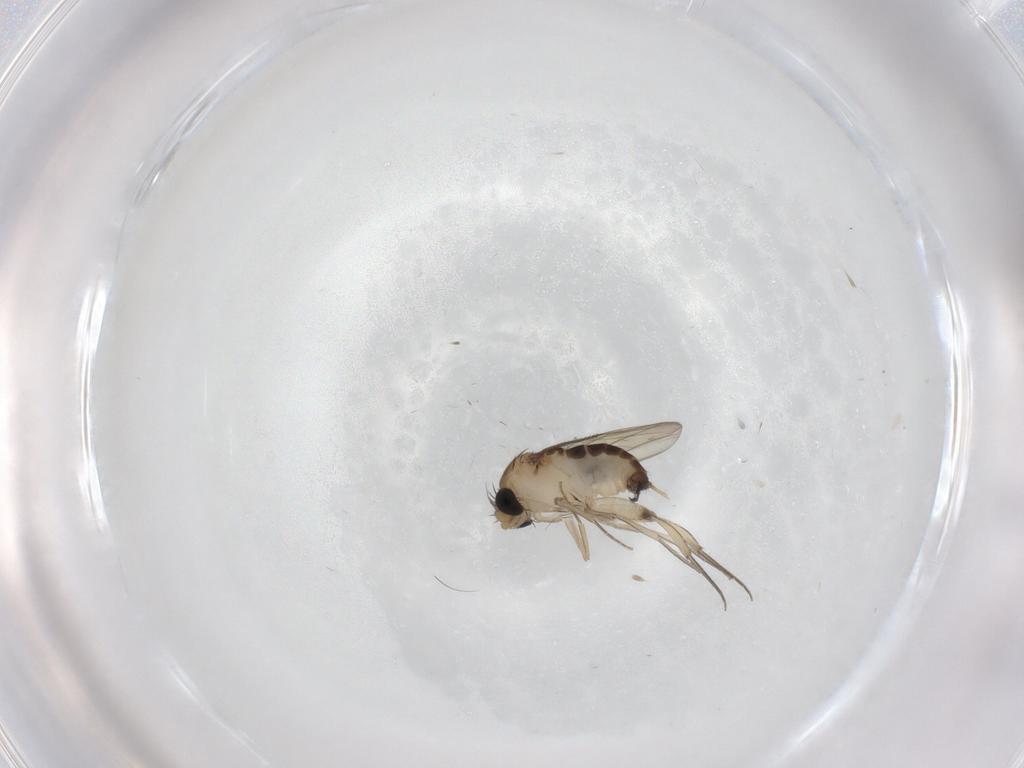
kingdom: Animalia
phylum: Arthropoda
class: Insecta
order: Diptera
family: Phoridae
